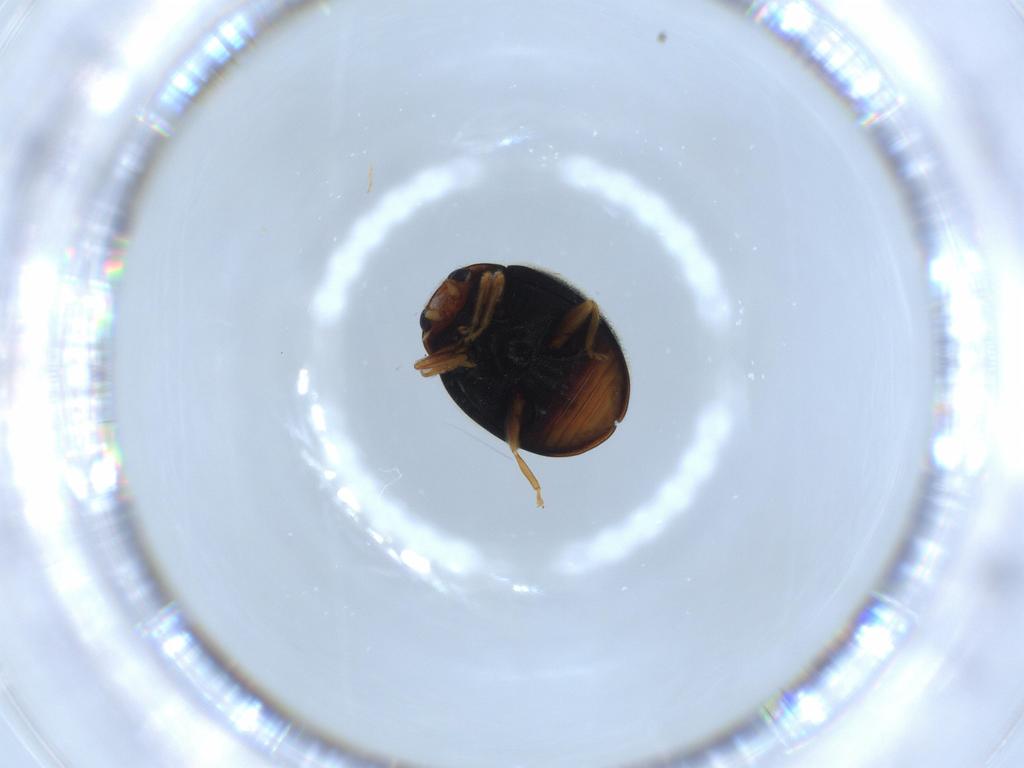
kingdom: Animalia
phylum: Arthropoda
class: Insecta
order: Coleoptera
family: Coccinellidae
